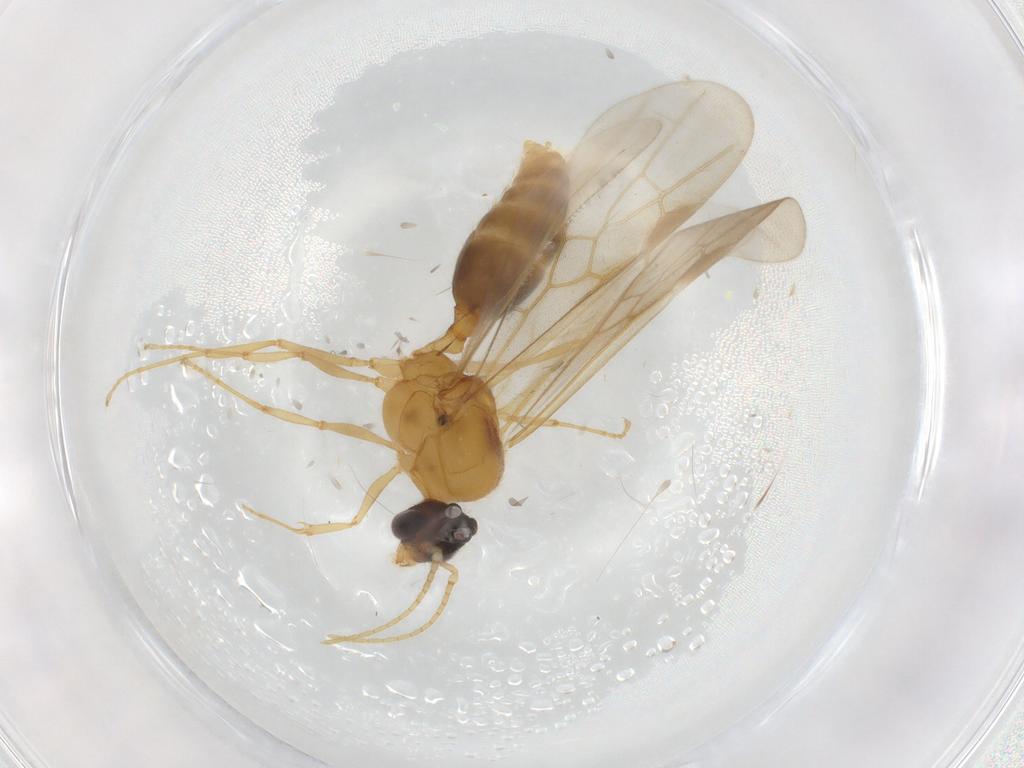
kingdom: Animalia
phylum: Arthropoda
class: Insecta
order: Hymenoptera
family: Formicidae
